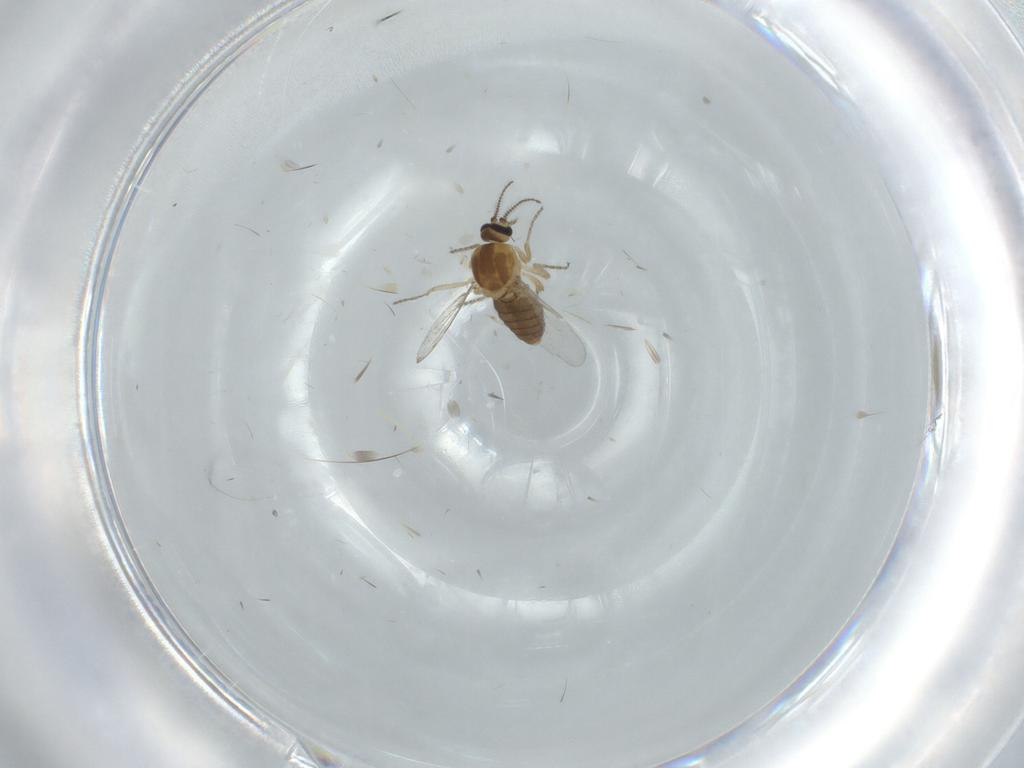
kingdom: Animalia
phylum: Arthropoda
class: Insecta
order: Diptera
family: Ceratopogonidae
